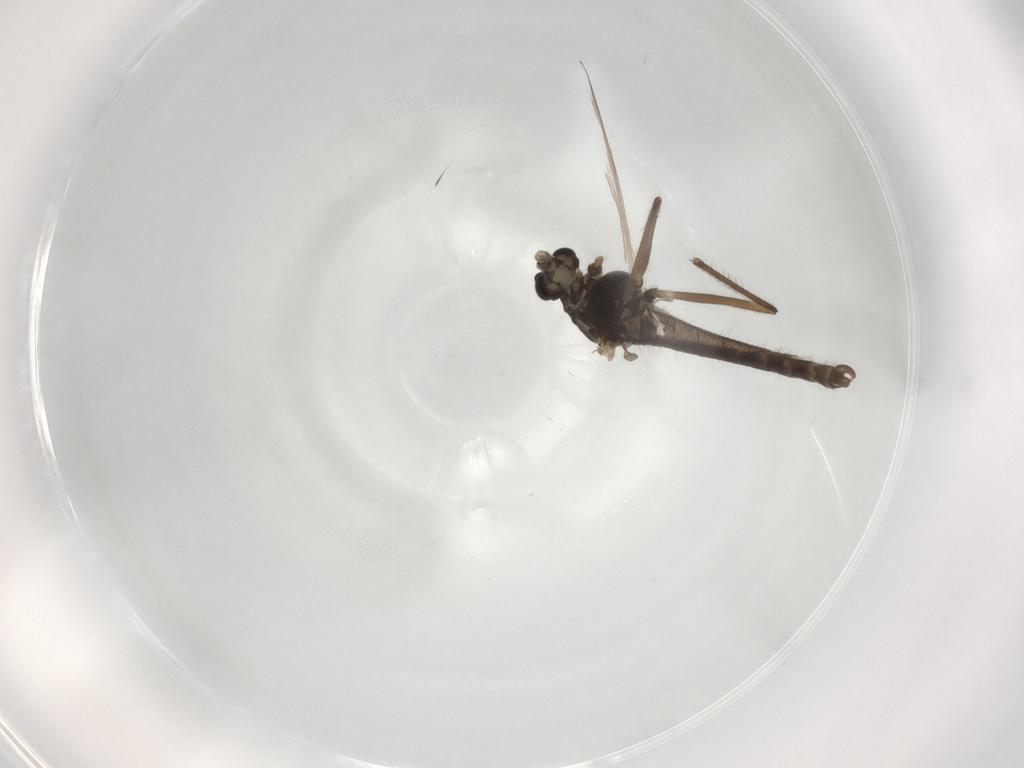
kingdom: Animalia
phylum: Arthropoda
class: Insecta
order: Diptera
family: Chironomidae
